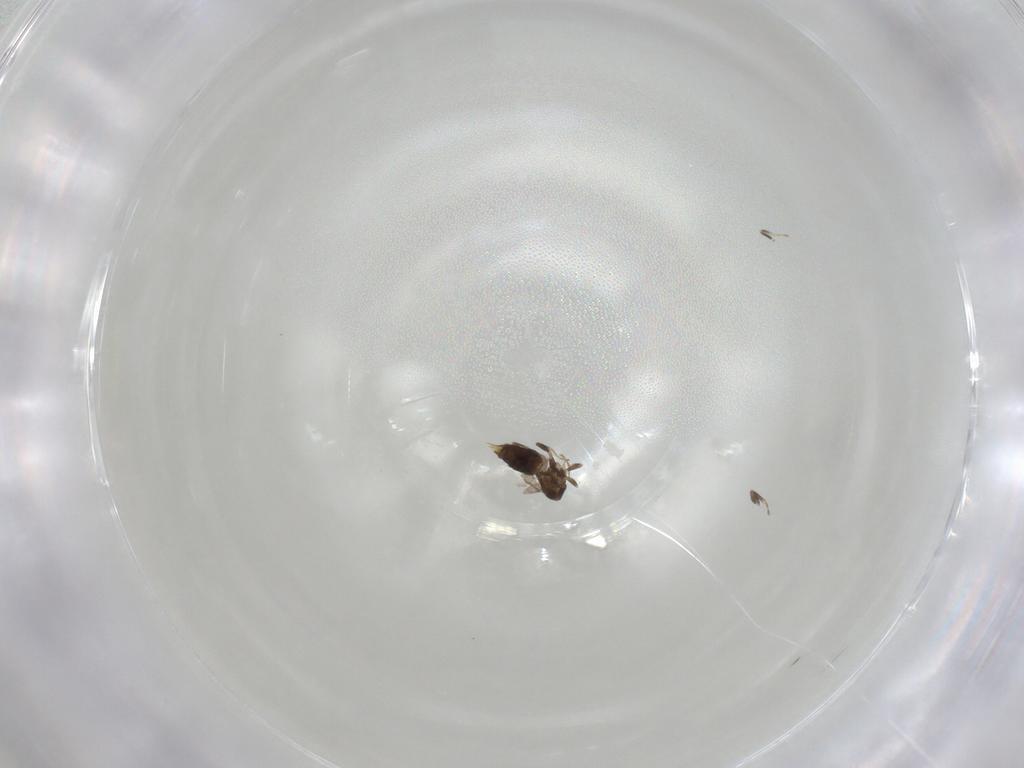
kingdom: Animalia
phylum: Arthropoda
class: Insecta
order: Hymenoptera
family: Aphelinidae
